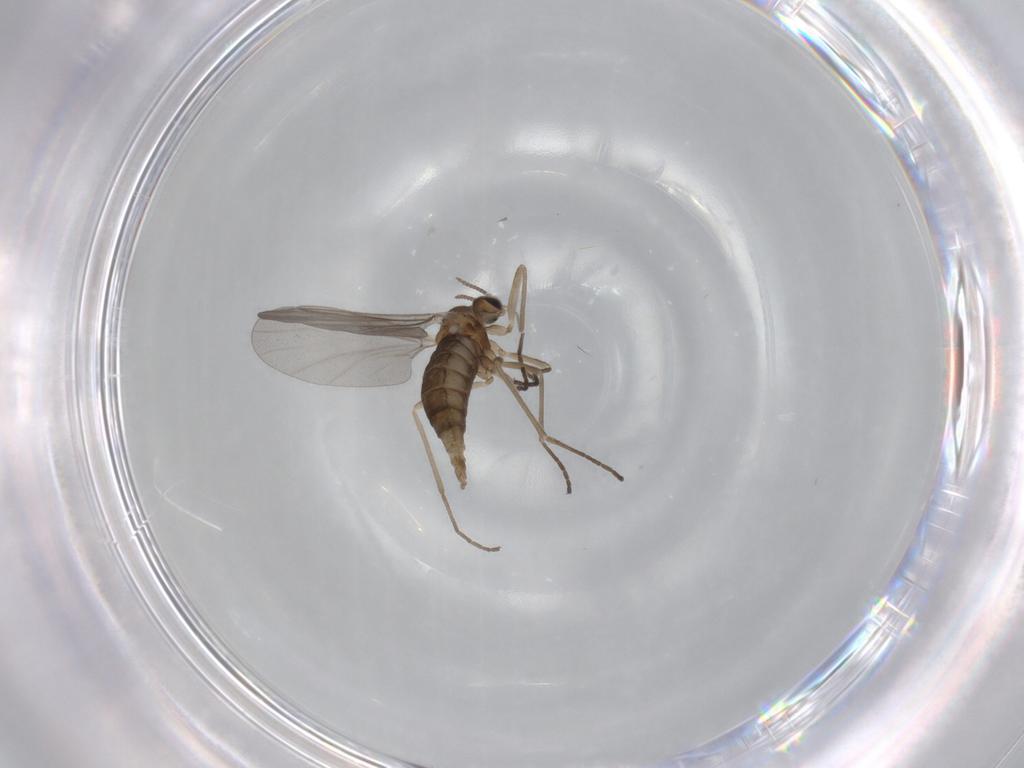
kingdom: Animalia
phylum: Arthropoda
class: Insecta
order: Diptera
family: Cecidomyiidae
